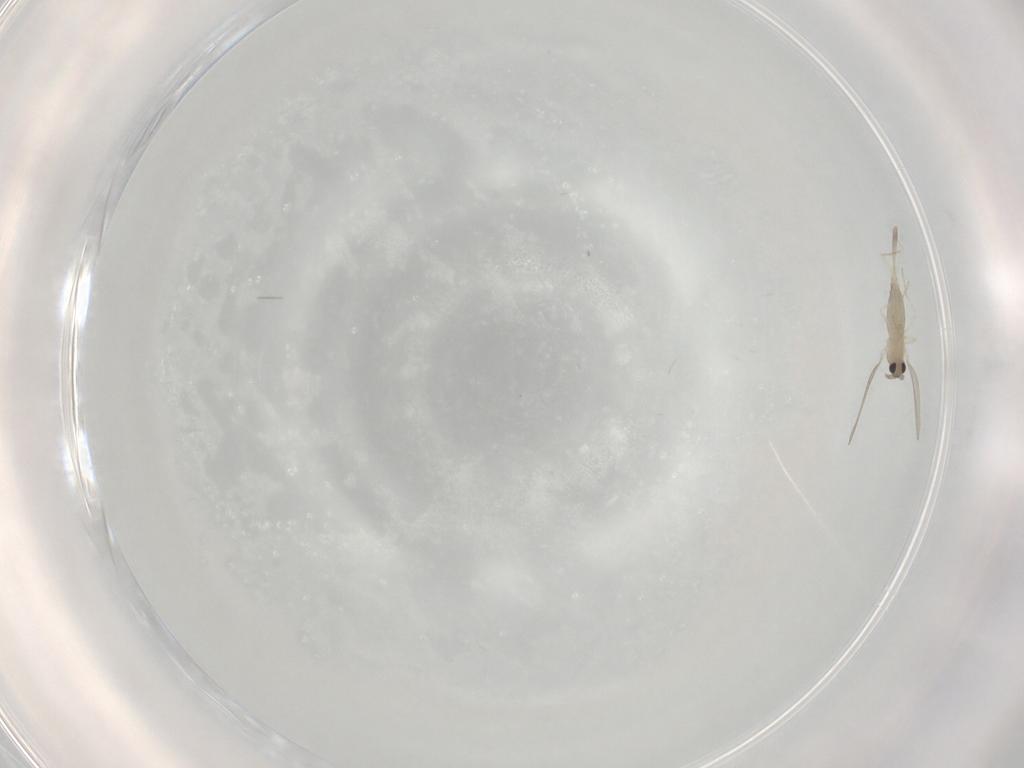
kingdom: Animalia
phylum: Arthropoda
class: Insecta
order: Diptera
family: Cecidomyiidae
